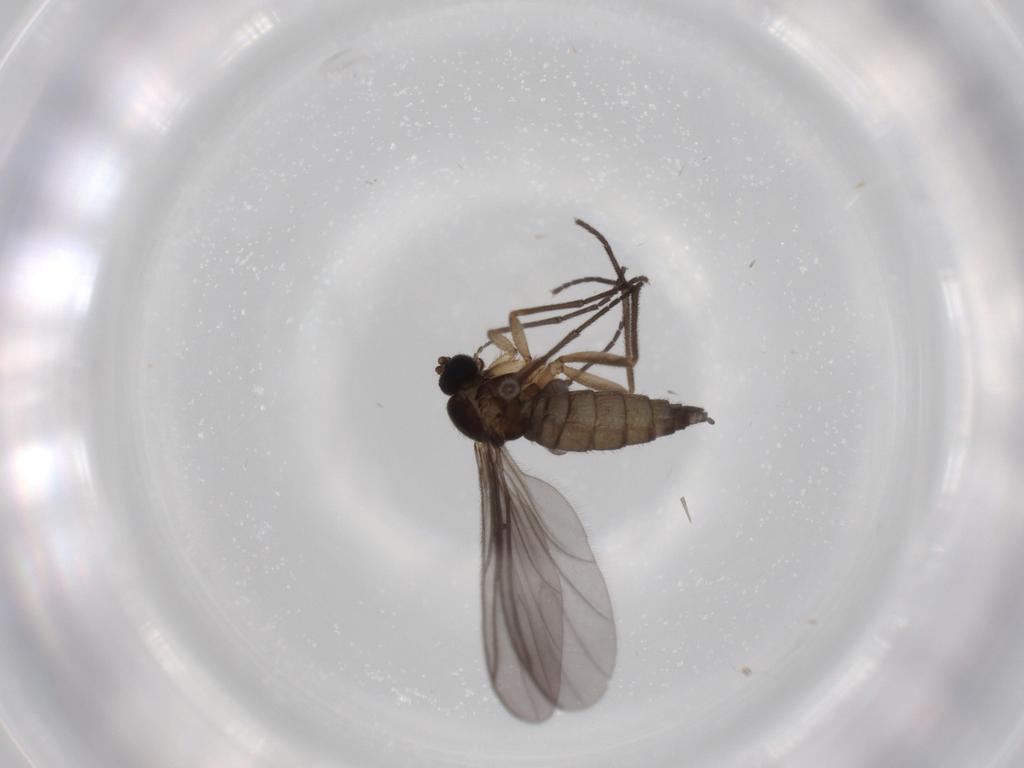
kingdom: Animalia
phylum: Arthropoda
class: Insecta
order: Diptera
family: Sciaridae
